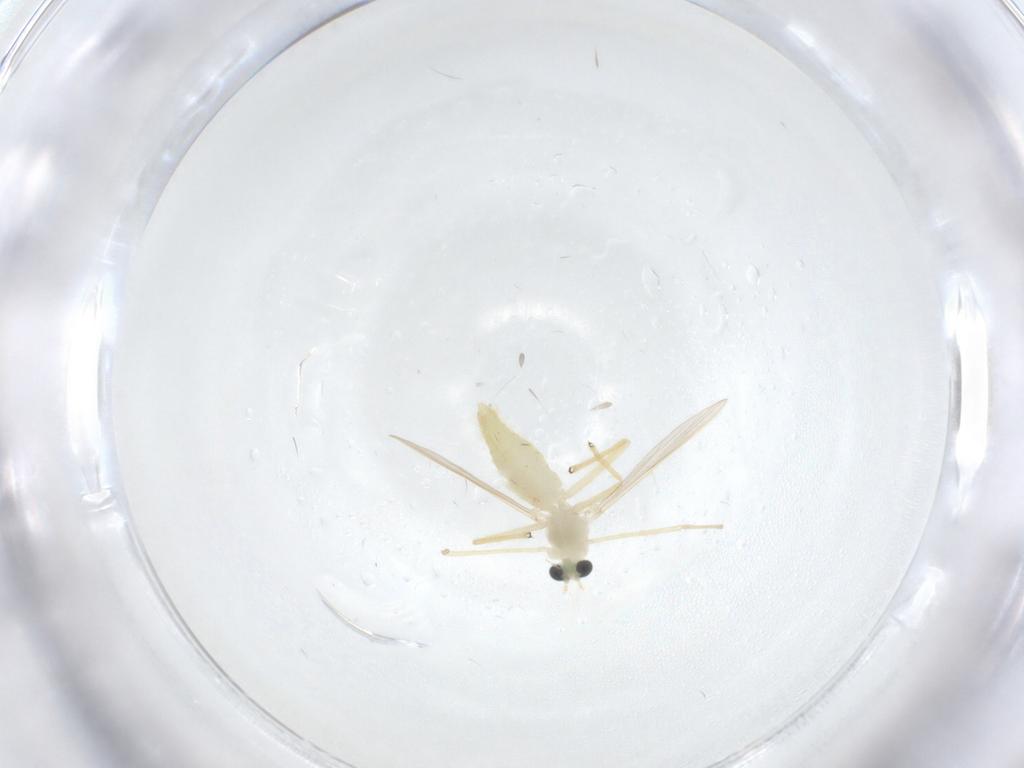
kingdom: Animalia
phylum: Arthropoda
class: Insecta
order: Diptera
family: Chironomidae
